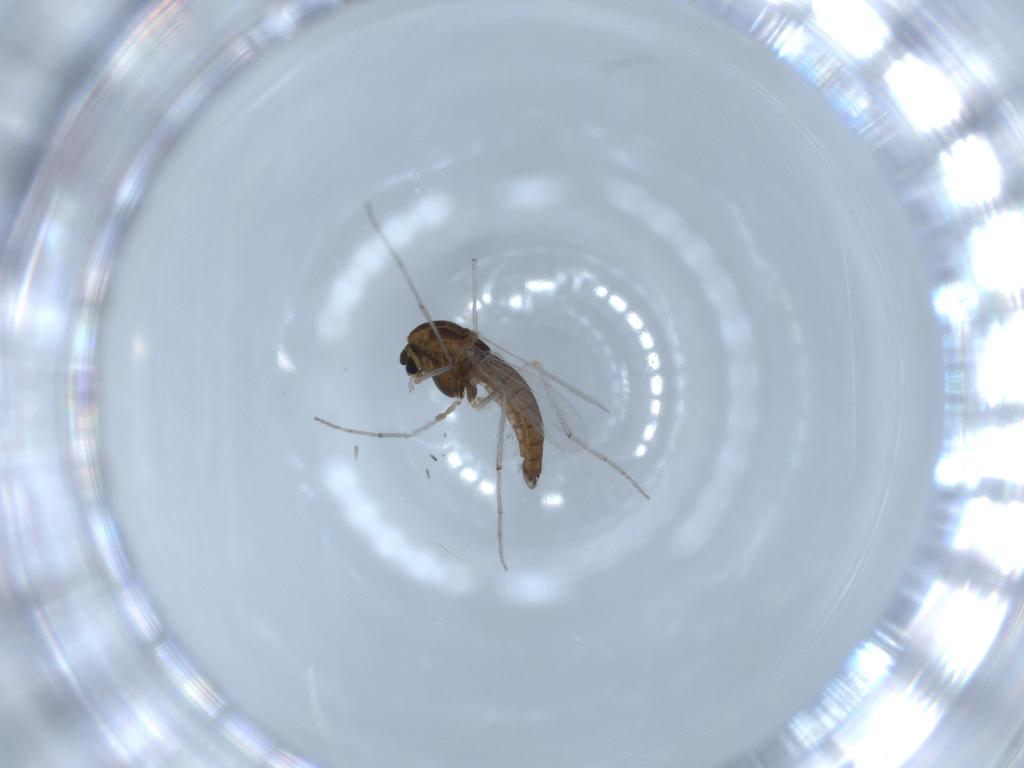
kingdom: Animalia
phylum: Arthropoda
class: Insecta
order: Diptera
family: Chironomidae
